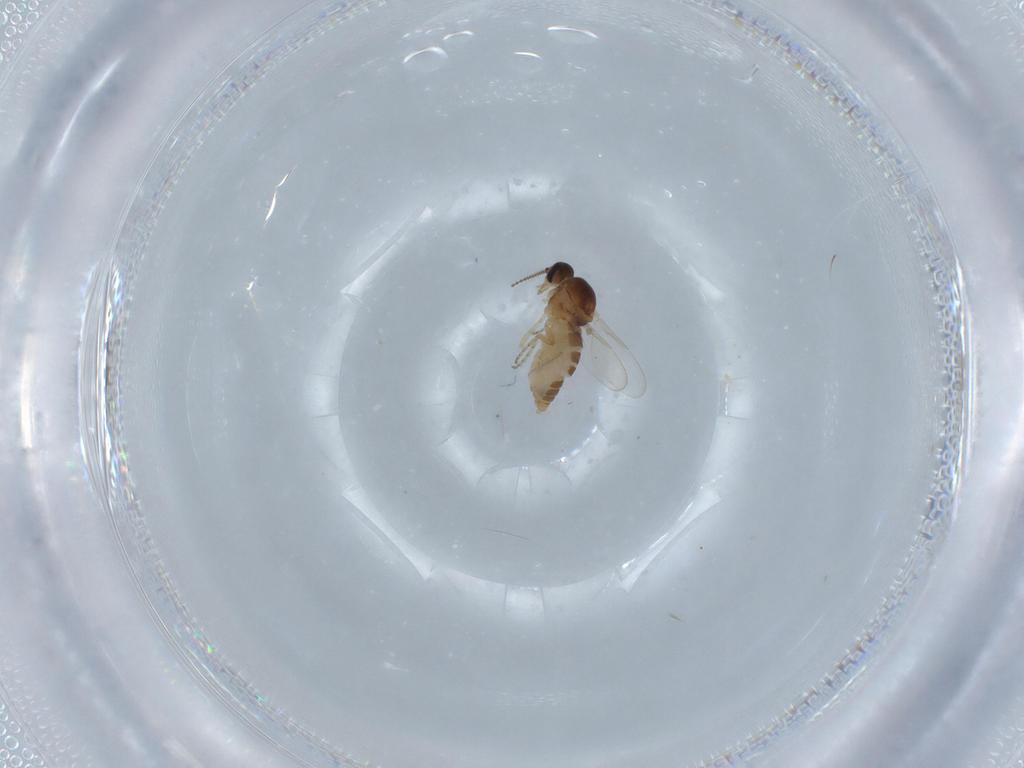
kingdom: Animalia
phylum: Arthropoda
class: Insecta
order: Diptera
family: Ceratopogonidae
